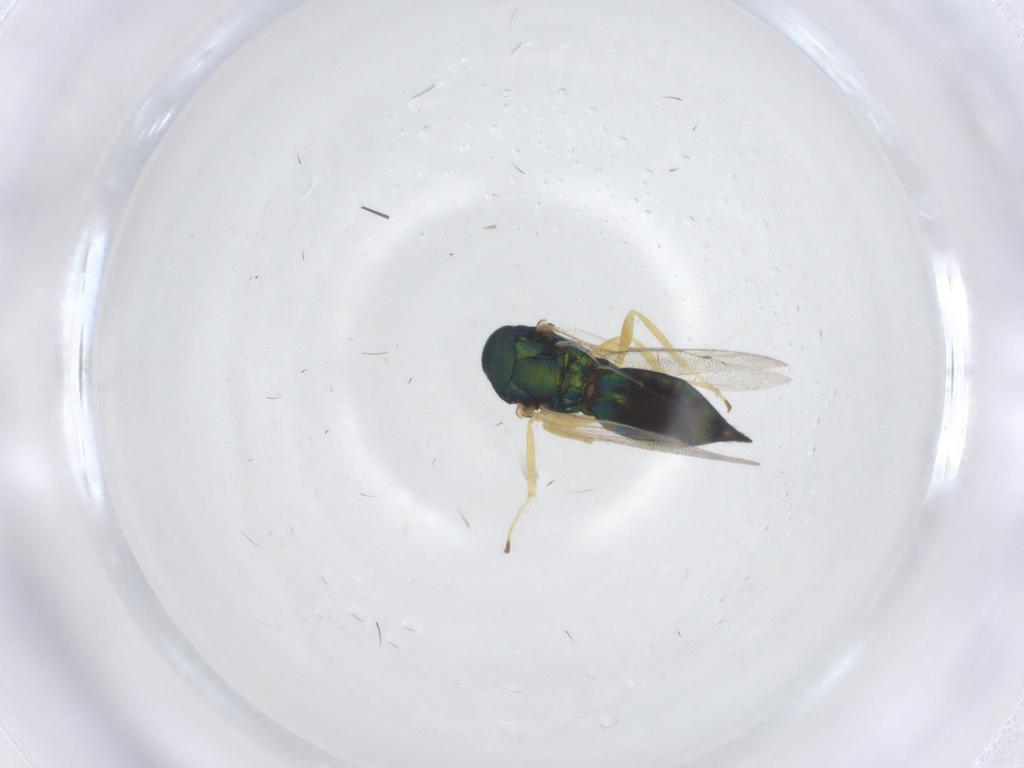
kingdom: Animalia
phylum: Arthropoda
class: Insecta
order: Hymenoptera
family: Pteromalidae
